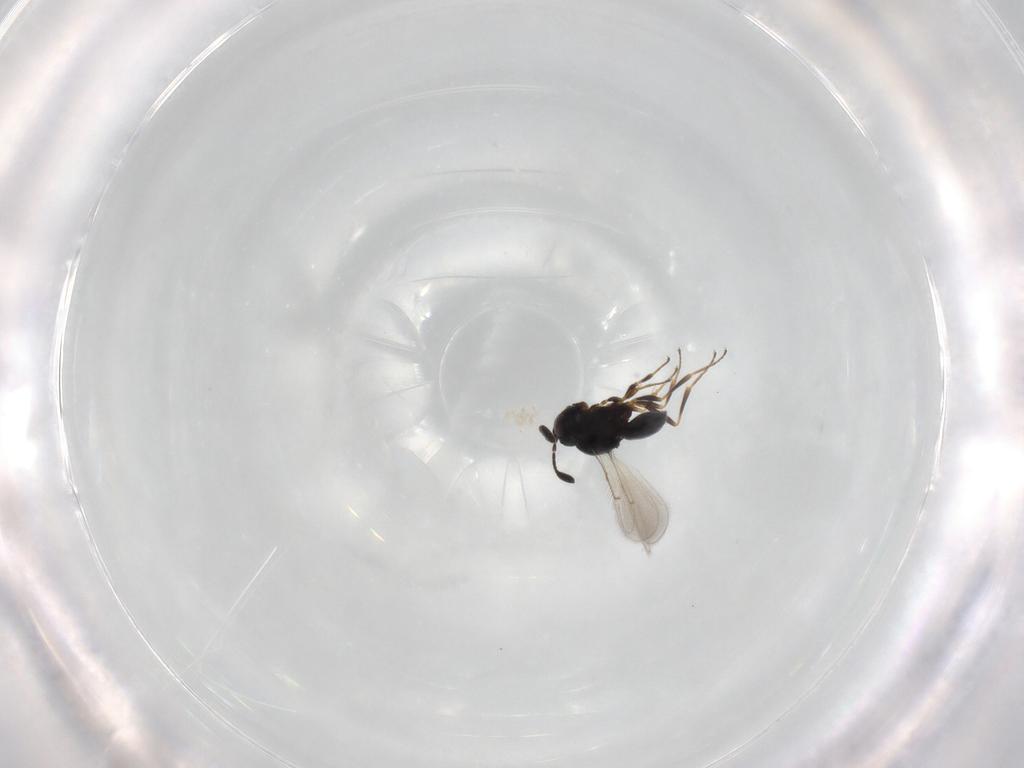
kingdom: Animalia
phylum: Arthropoda
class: Insecta
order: Hymenoptera
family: Scelionidae
